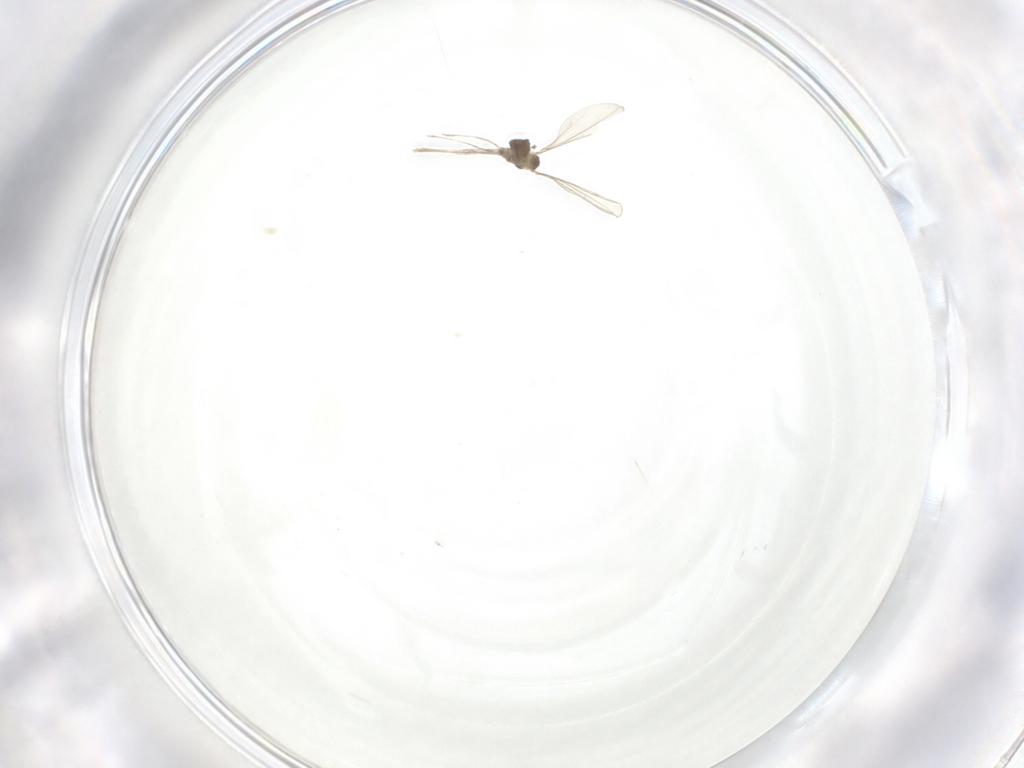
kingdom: Animalia
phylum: Arthropoda
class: Insecta
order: Diptera
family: Cecidomyiidae
